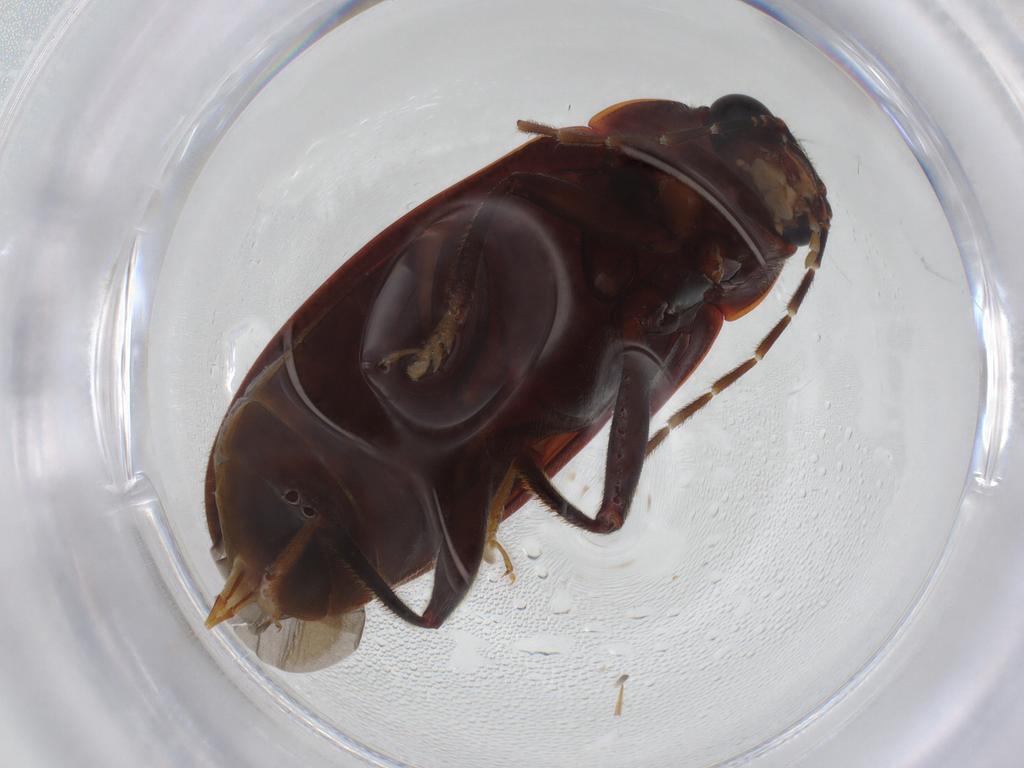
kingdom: Animalia
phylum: Arthropoda
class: Insecta
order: Coleoptera
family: Ptilodactylidae
